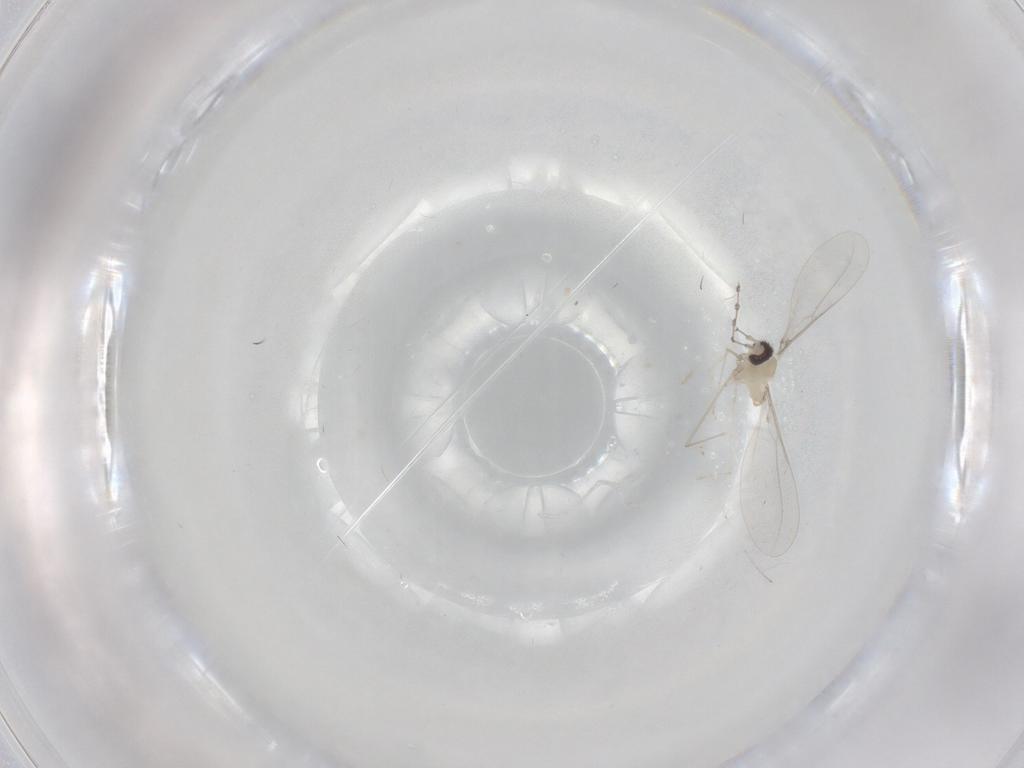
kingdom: Animalia
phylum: Arthropoda
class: Insecta
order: Diptera
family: Cecidomyiidae
